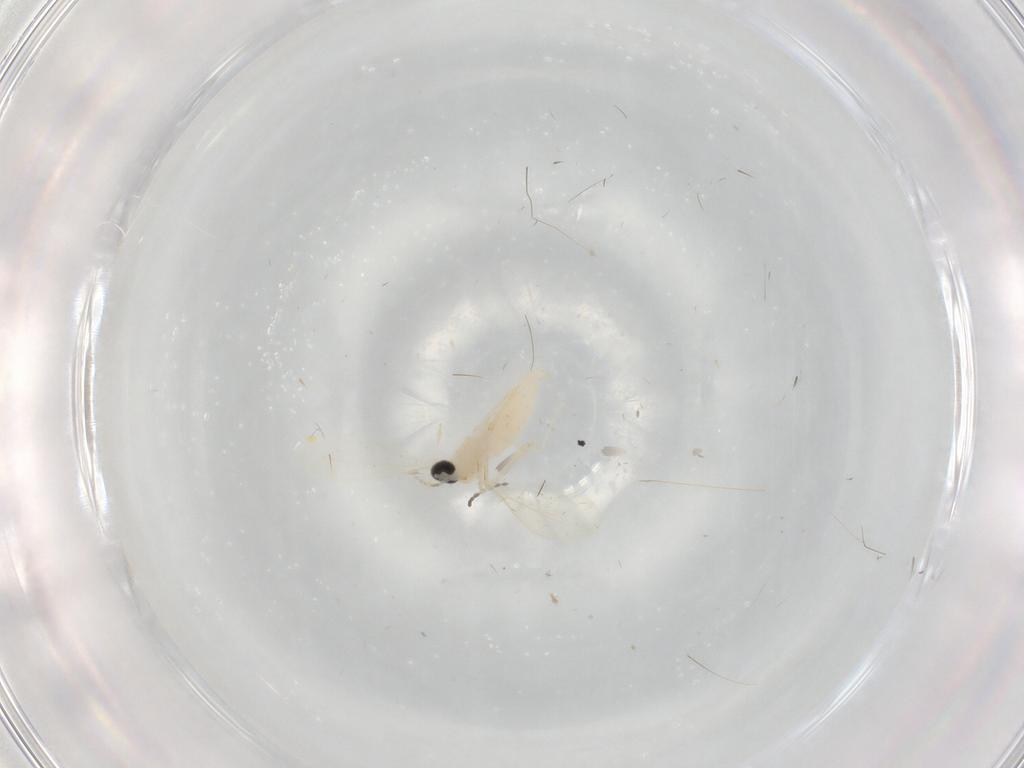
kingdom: Animalia
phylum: Arthropoda
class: Insecta
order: Diptera
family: Cecidomyiidae
